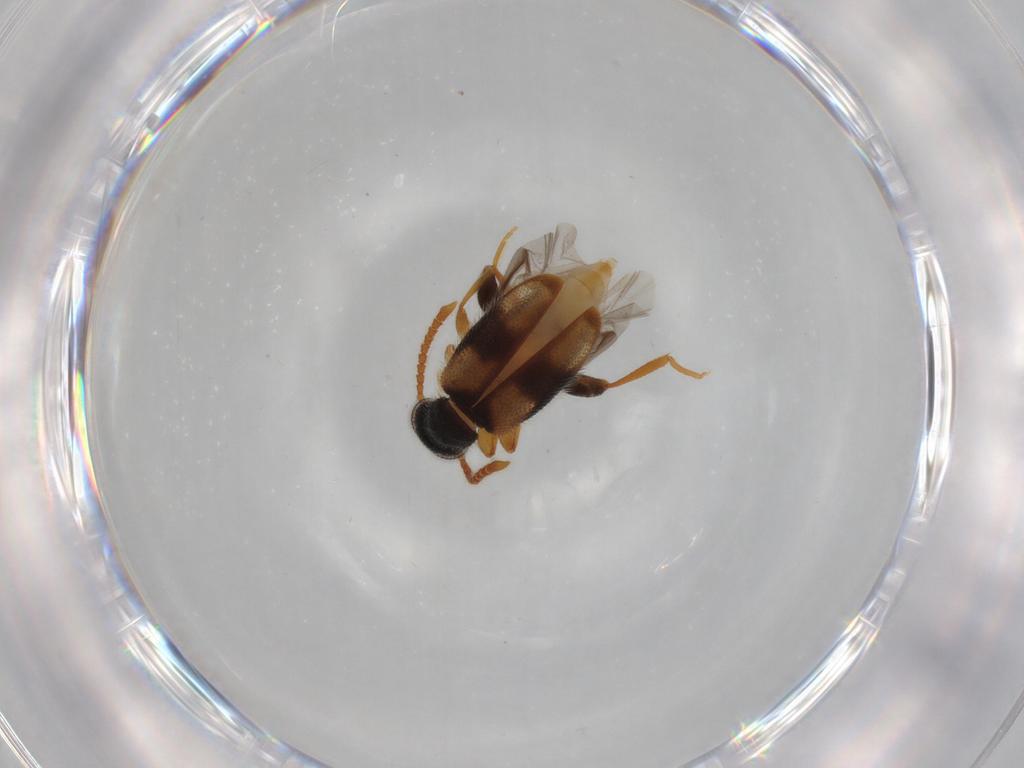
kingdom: Animalia
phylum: Arthropoda
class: Insecta
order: Coleoptera
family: Aderidae
